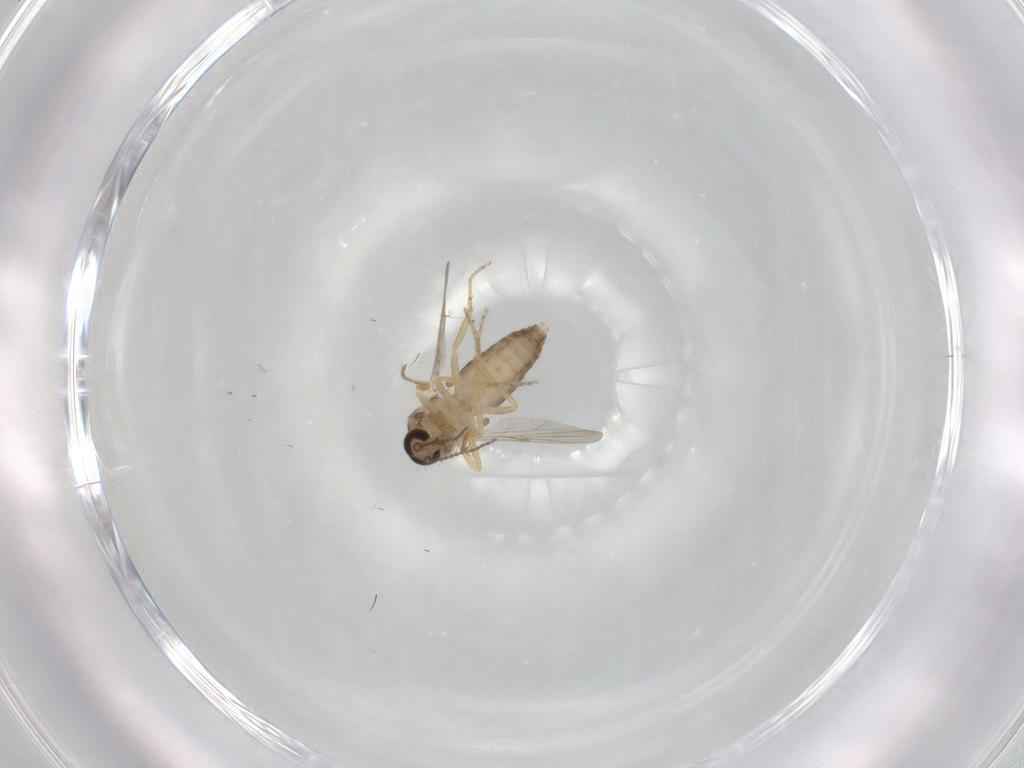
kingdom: Animalia
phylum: Arthropoda
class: Insecta
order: Diptera
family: Ceratopogonidae
